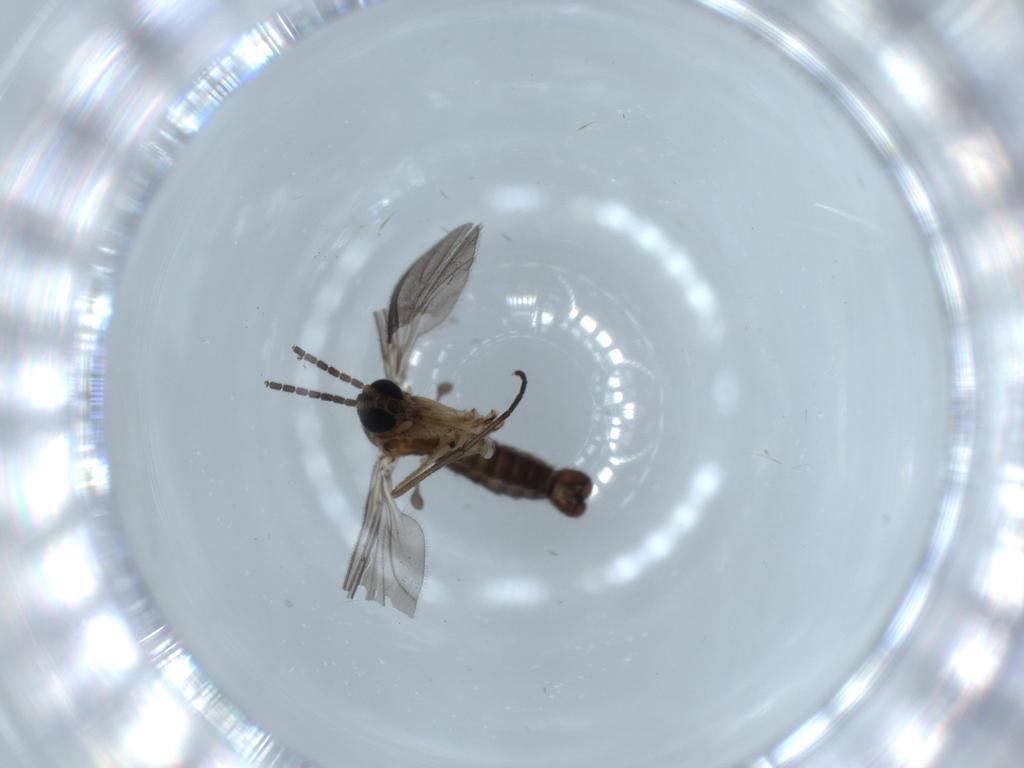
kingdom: Animalia
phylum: Arthropoda
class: Insecta
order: Diptera
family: Sciaridae
